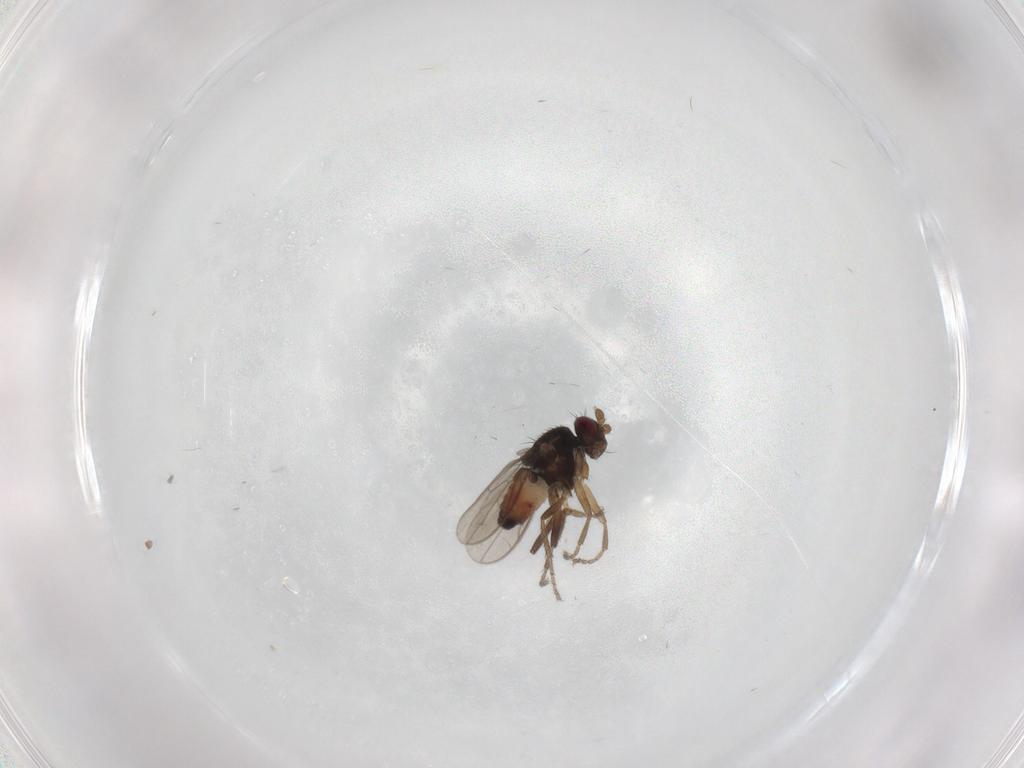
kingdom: Animalia
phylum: Arthropoda
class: Insecta
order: Diptera
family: Sphaeroceridae
